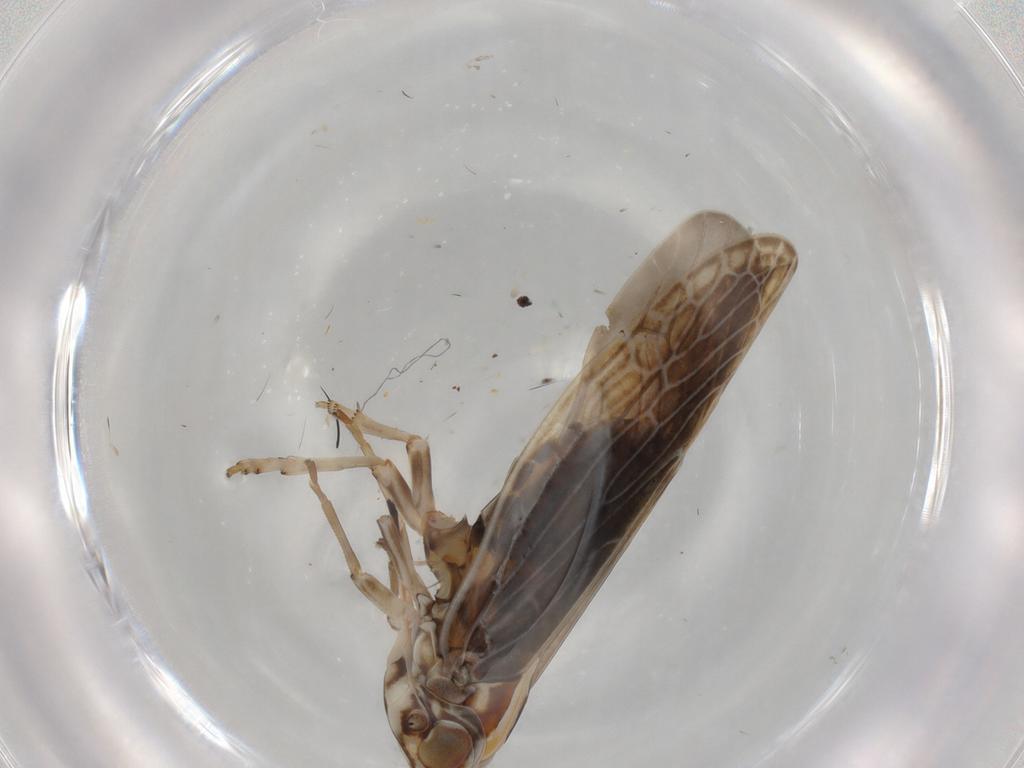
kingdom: Animalia
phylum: Arthropoda
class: Insecta
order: Hemiptera
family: Achilidae
